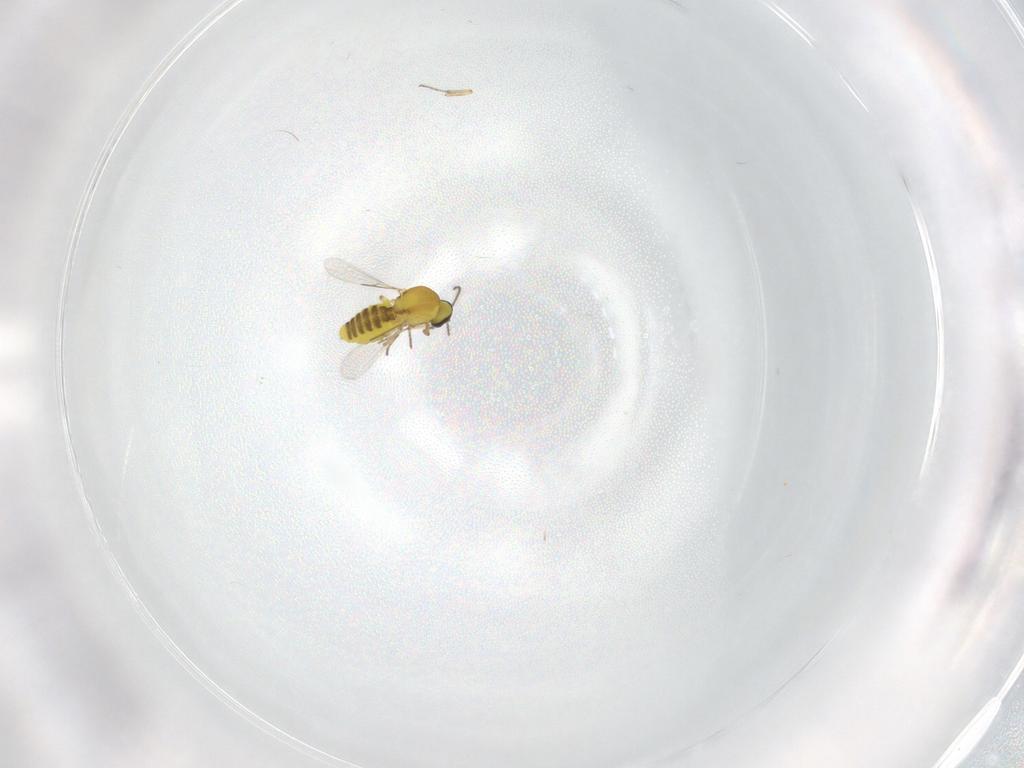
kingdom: Animalia
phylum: Arthropoda
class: Insecta
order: Diptera
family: Ceratopogonidae
